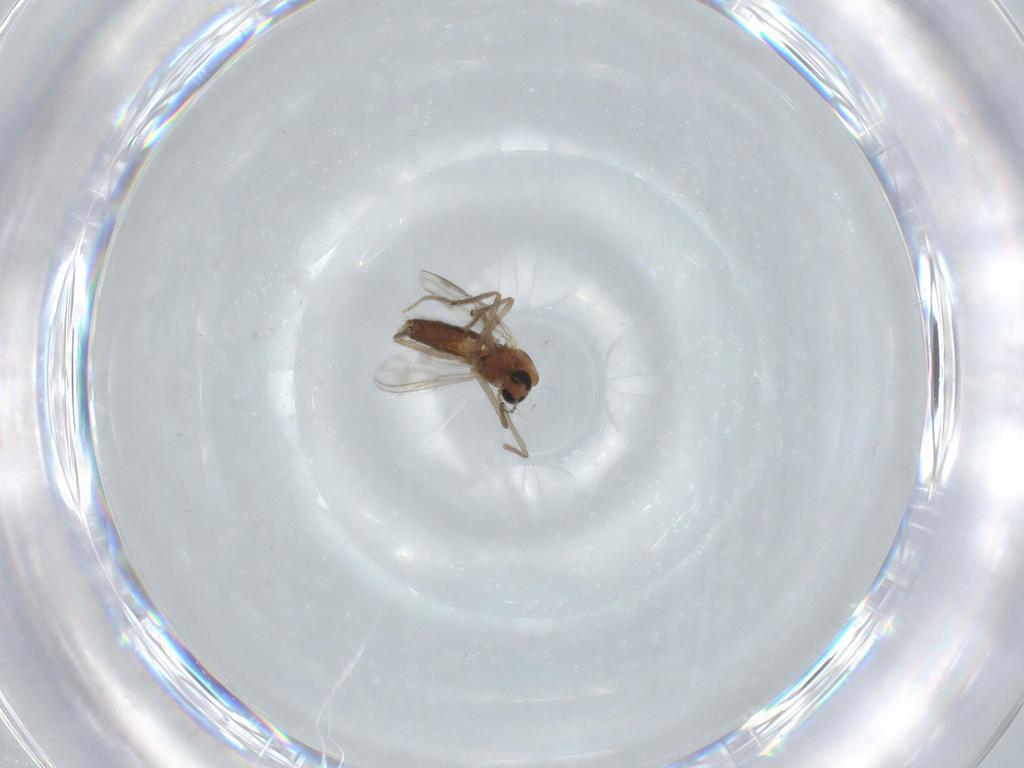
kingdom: Animalia
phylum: Arthropoda
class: Insecta
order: Diptera
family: Chironomidae
